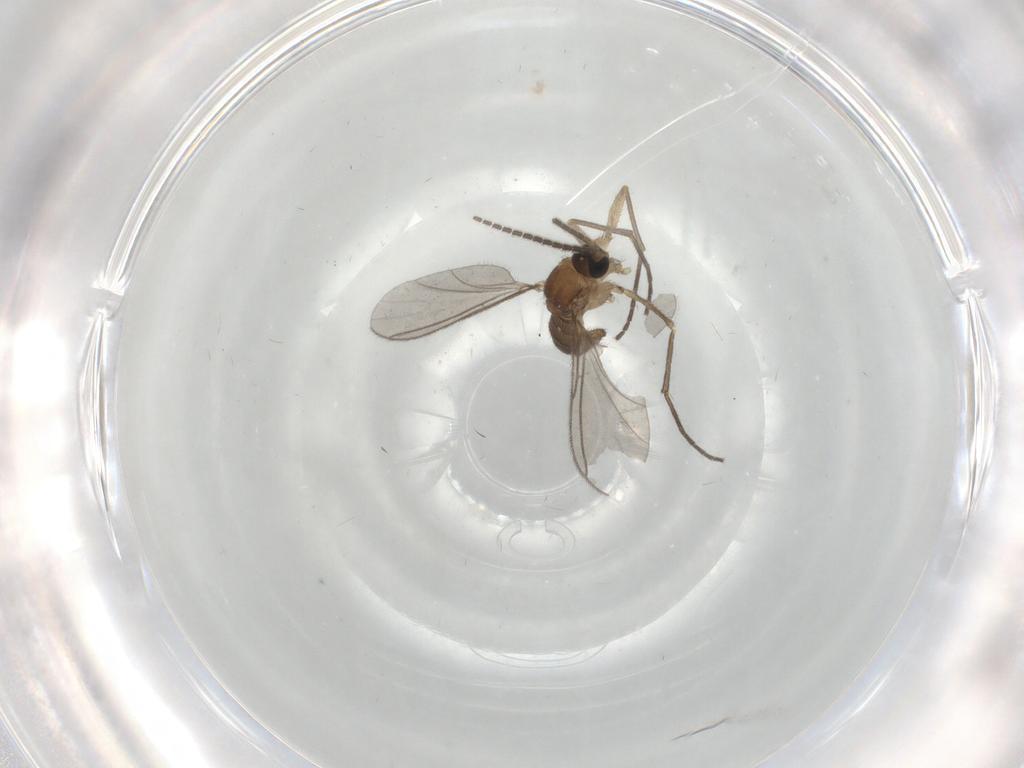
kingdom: Animalia
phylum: Arthropoda
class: Insecta
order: Diptera
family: Sciaridae
